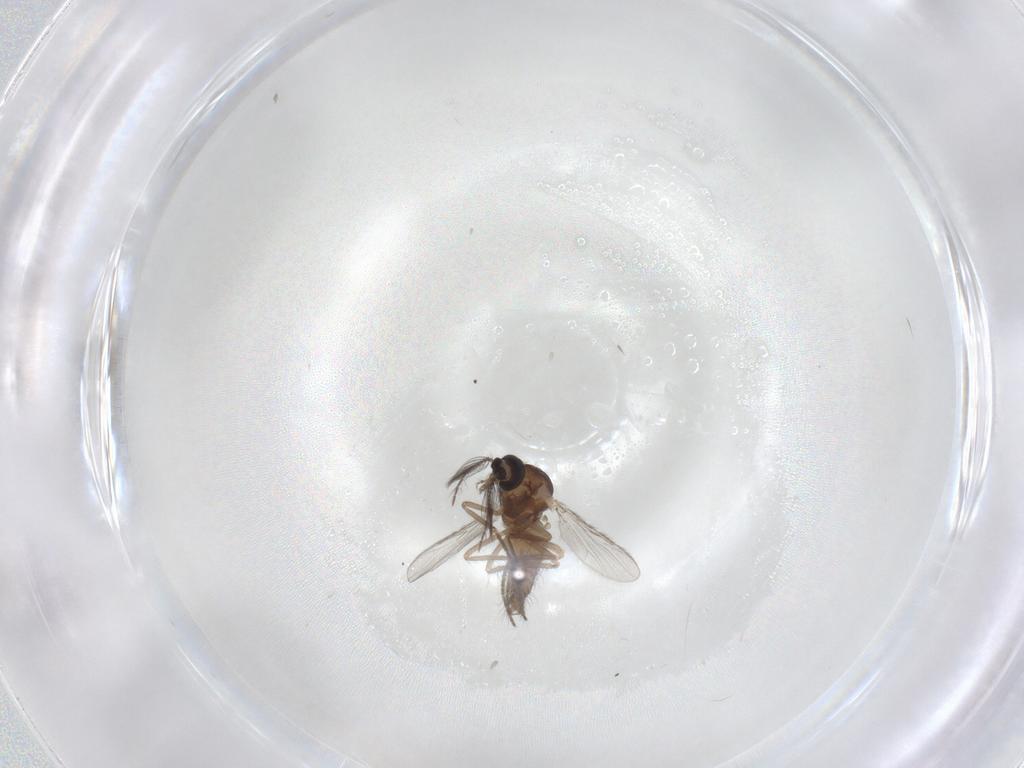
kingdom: Animalia
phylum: Arthropoda
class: Insecta
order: Diptera
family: Ceratopogonidae
